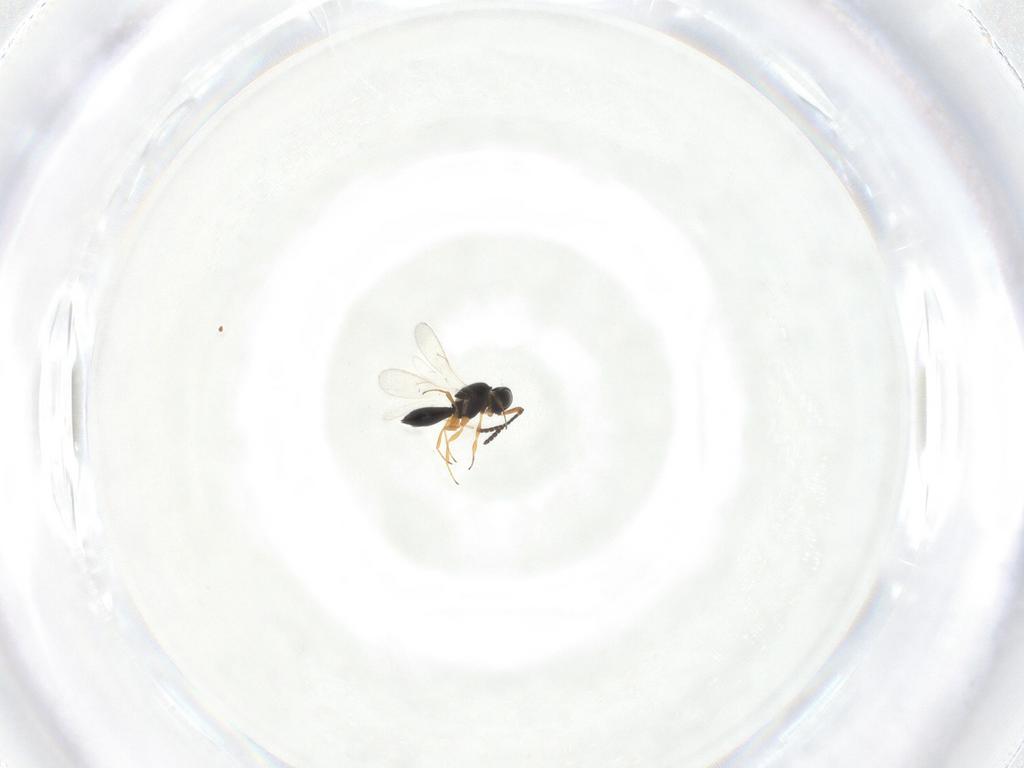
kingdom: Animalia
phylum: Arthropoda
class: Insecta
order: Hymenoptera
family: Scelionidae
